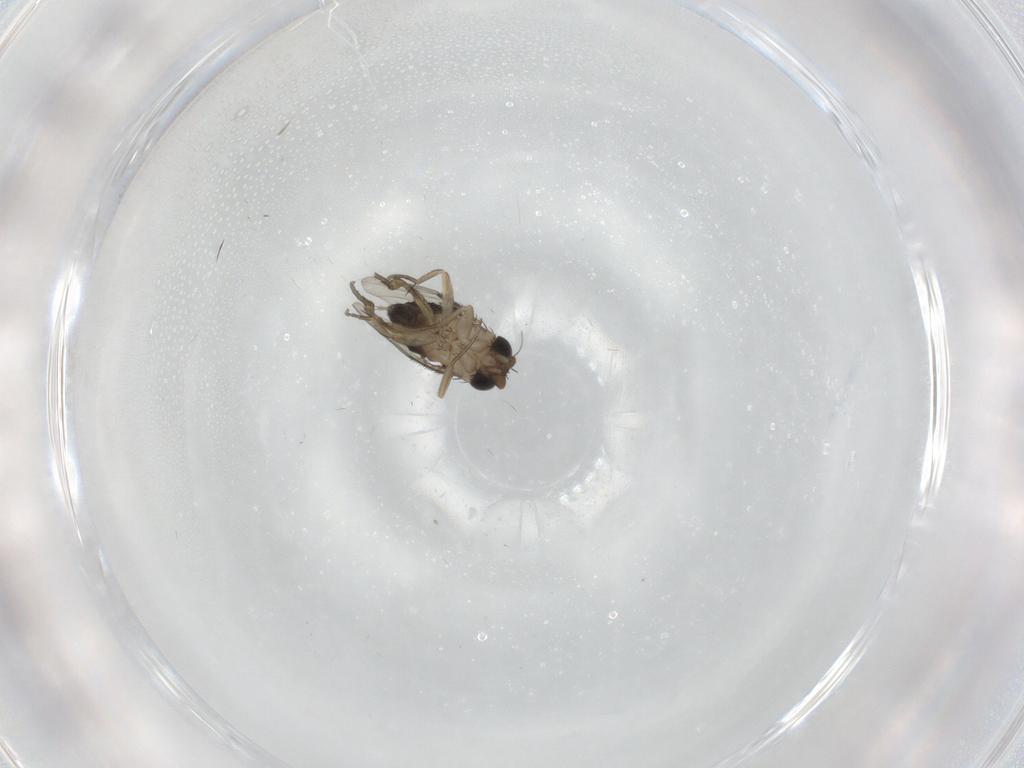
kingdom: Animalia
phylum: Arthropoda
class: Insecta
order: Diptera
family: Phoridae
